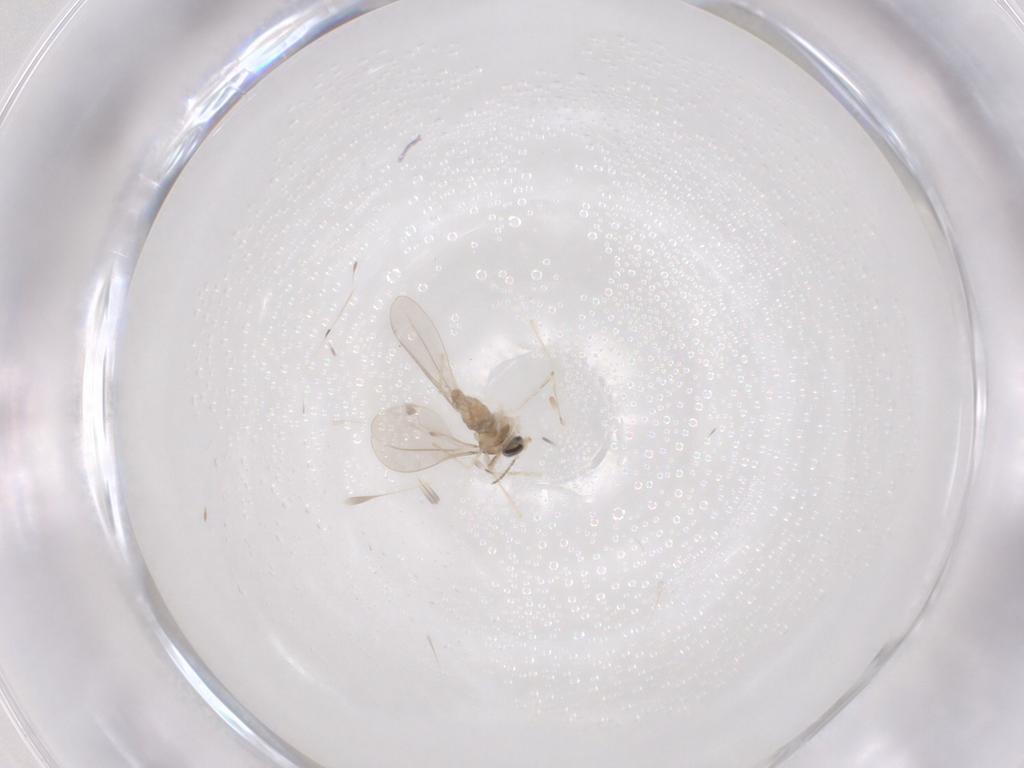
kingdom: Animalia
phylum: Arthropoda
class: Insecta
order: Diptera
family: Cecidomyiidae
